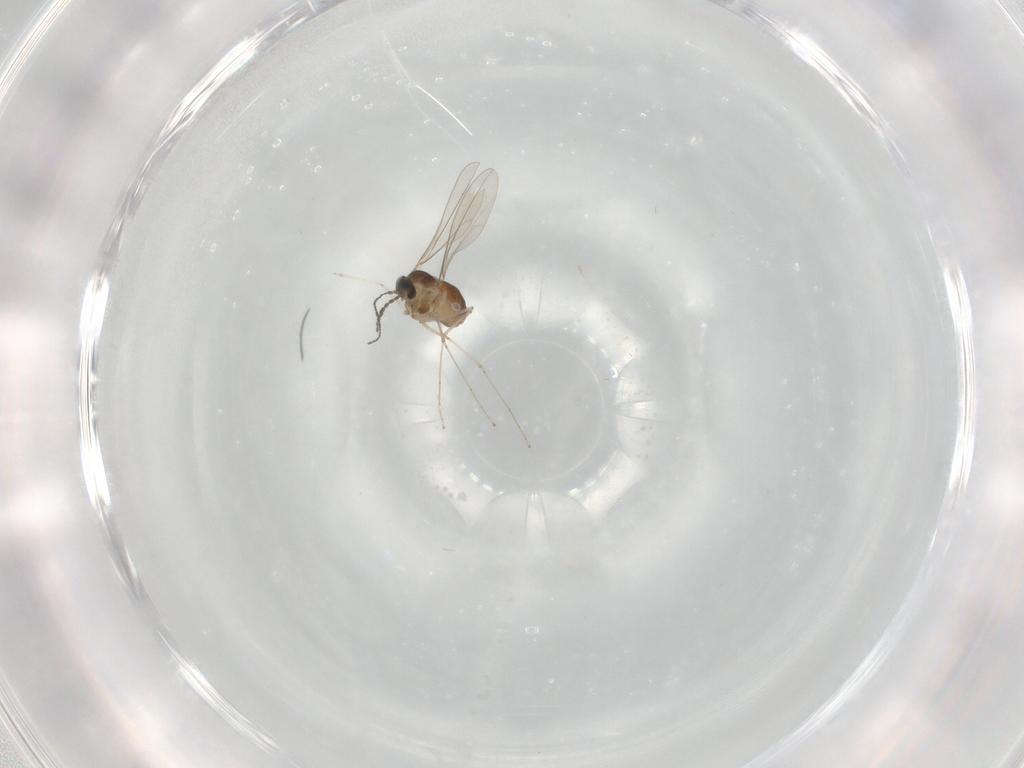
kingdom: Animalia
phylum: Arthropoda
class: Insecta
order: Diptera
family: Cecidomyiidae
